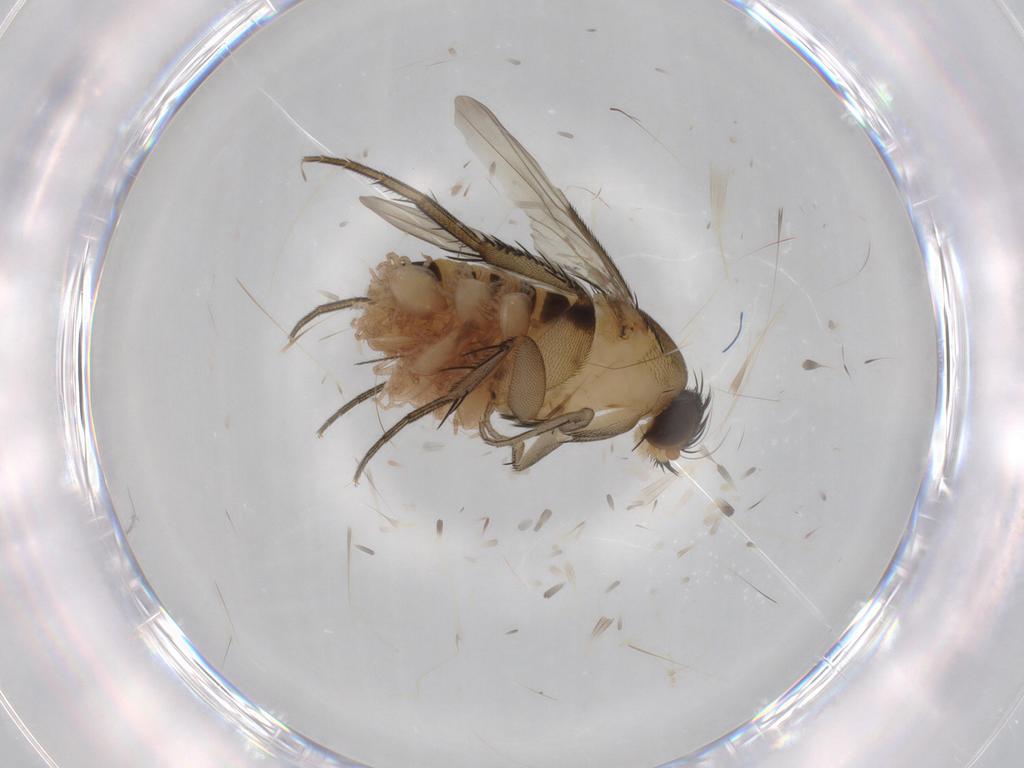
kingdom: Animalia
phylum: Arthropoda
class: Insecta
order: Diptera
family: Phoridae
